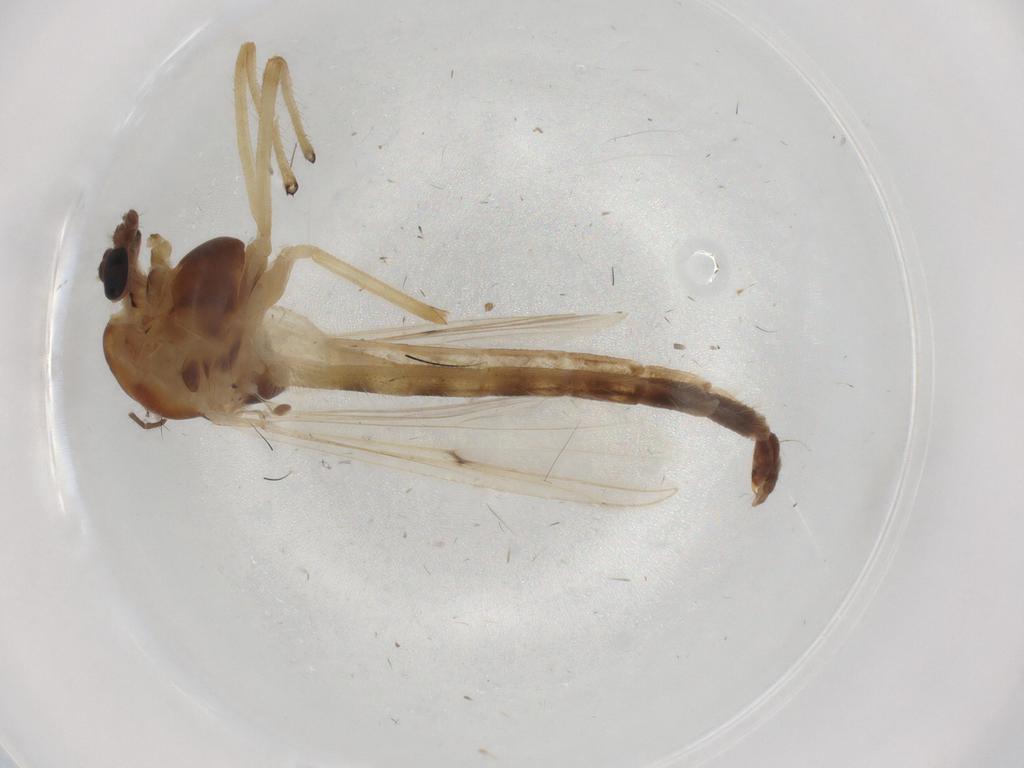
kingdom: Animalia
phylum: Arthropoda
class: Insecta
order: Diptera
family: Chironomidae
